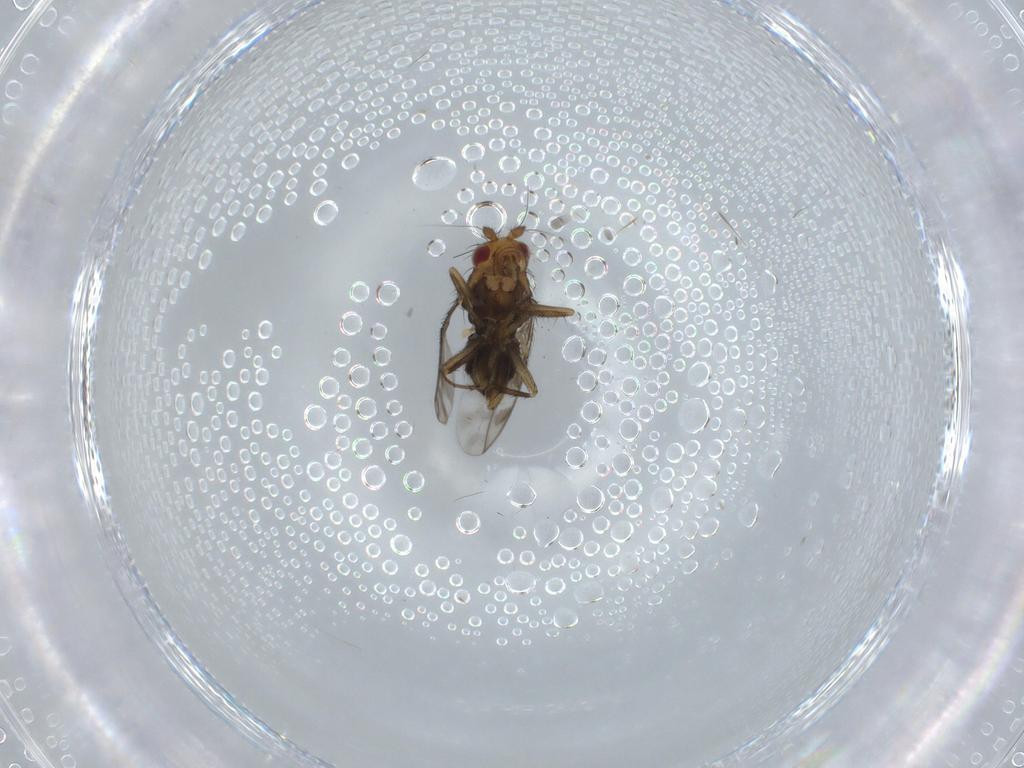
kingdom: Animalia
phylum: Arthropoda
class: Insecta
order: Diptera
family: Sphaeroceridae
